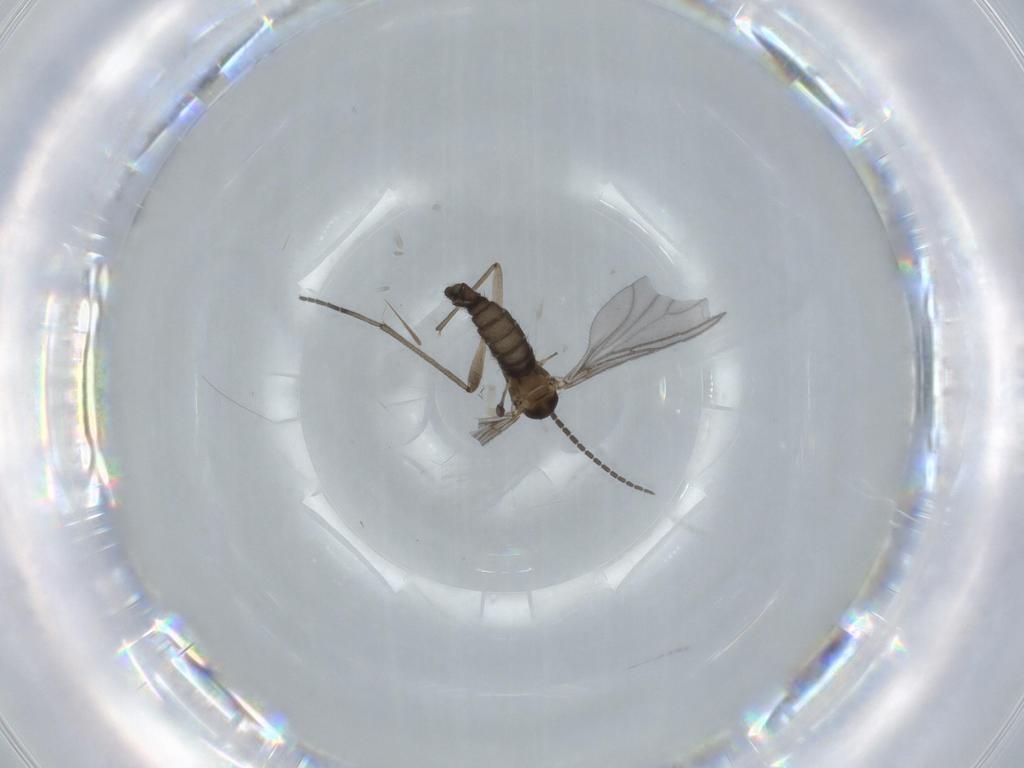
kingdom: Animalia
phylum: Arthropoda
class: Insecta
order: Diptera
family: Sciaridae
